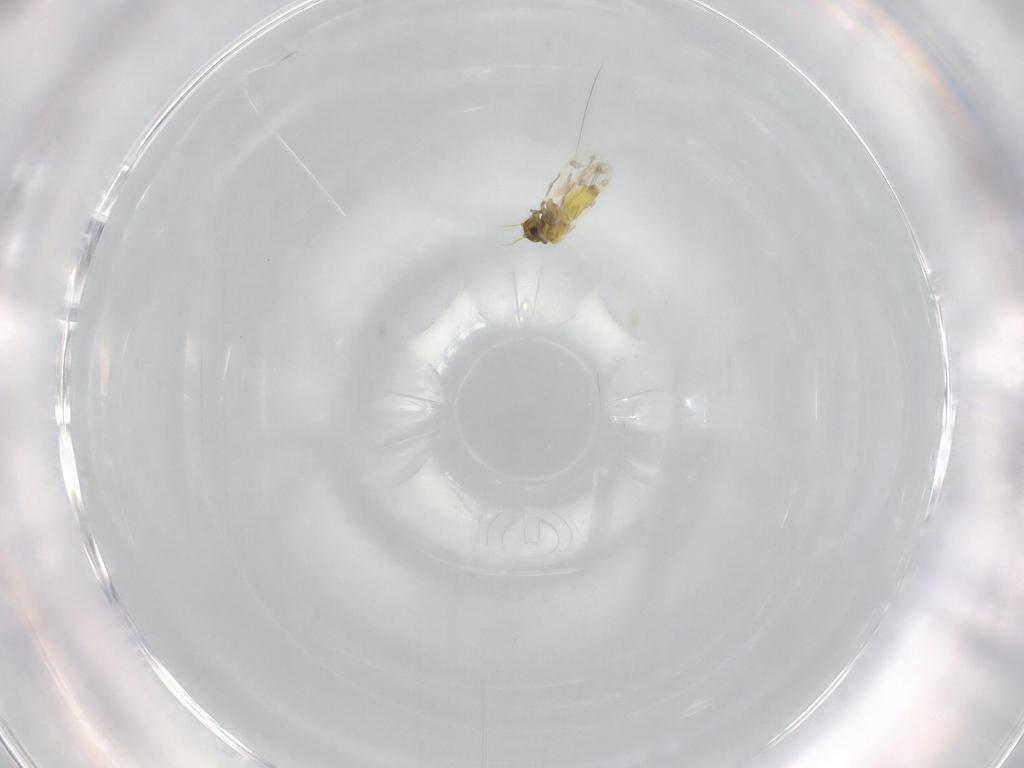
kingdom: Animalia
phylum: Arthropoda
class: Insecta
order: Hemiptera
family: Aleyrodidae
